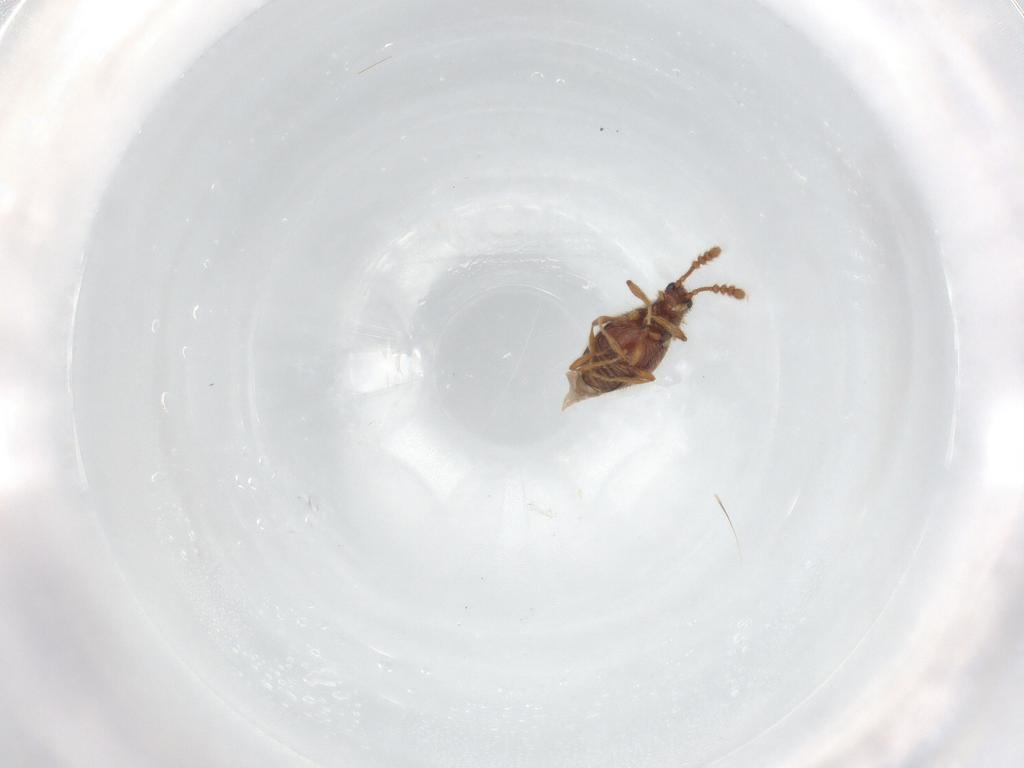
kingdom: Animalia
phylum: Arthropoda
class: Insecta
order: Coleoptera
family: Staphylinidae
